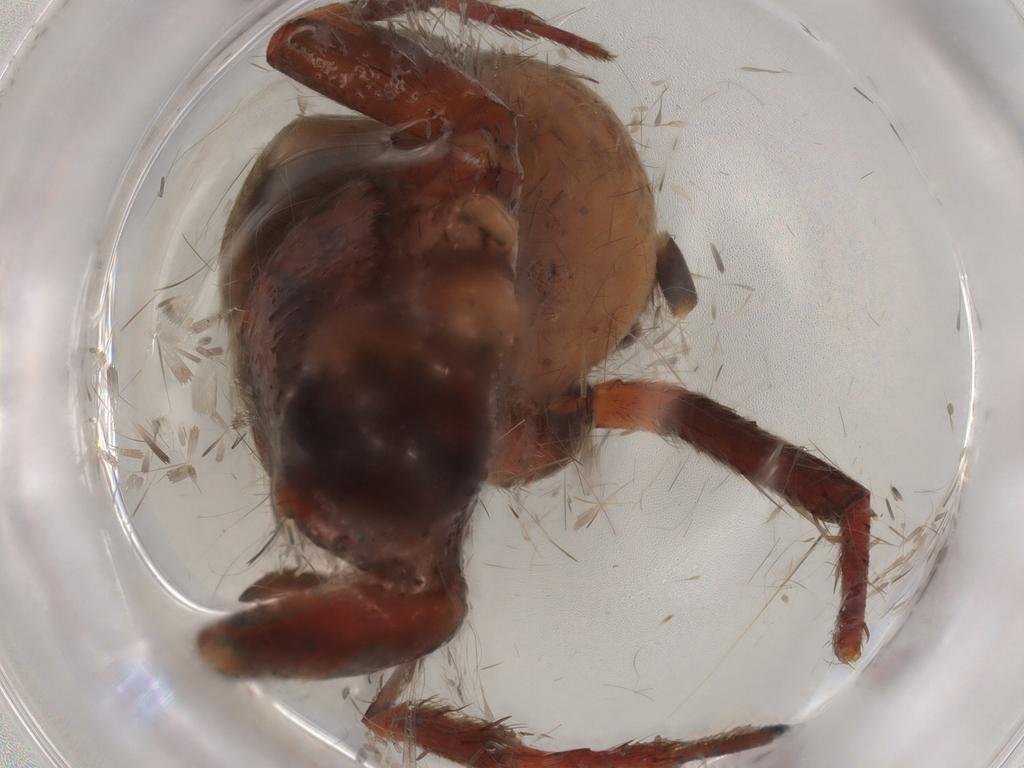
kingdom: Animalia
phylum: Arthropoda
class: Arachnida
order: Araneae
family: Gnaphosidae
